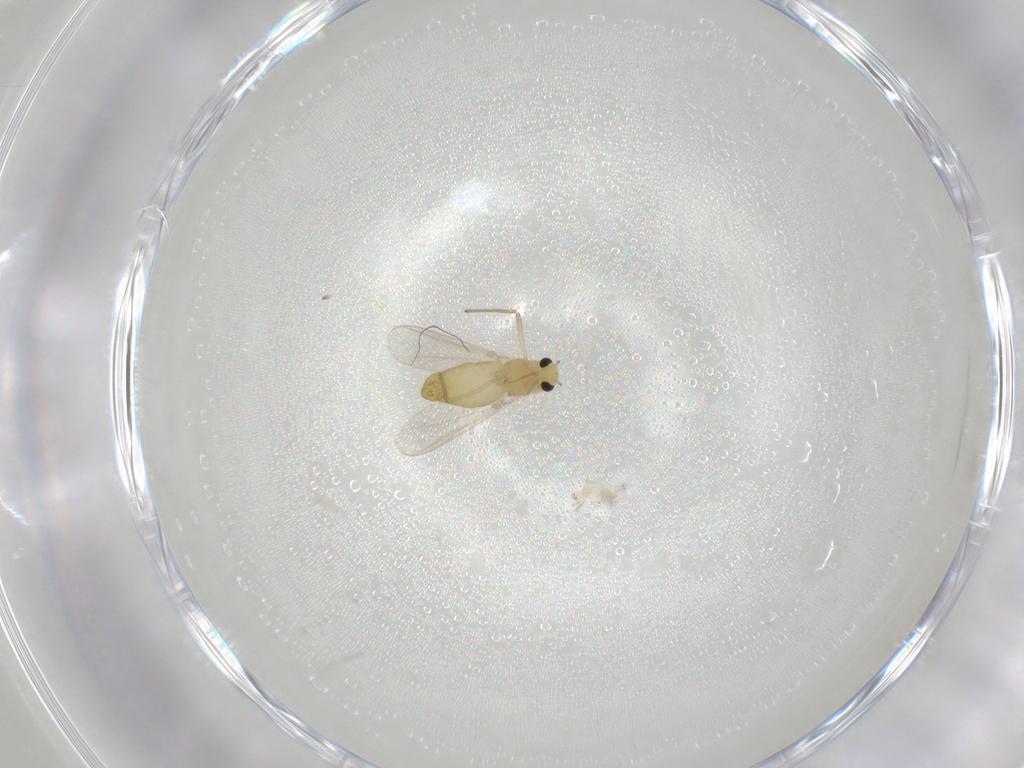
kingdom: Animalia
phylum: Arthropoda
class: Insecta
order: Diptera
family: Chironomidae
